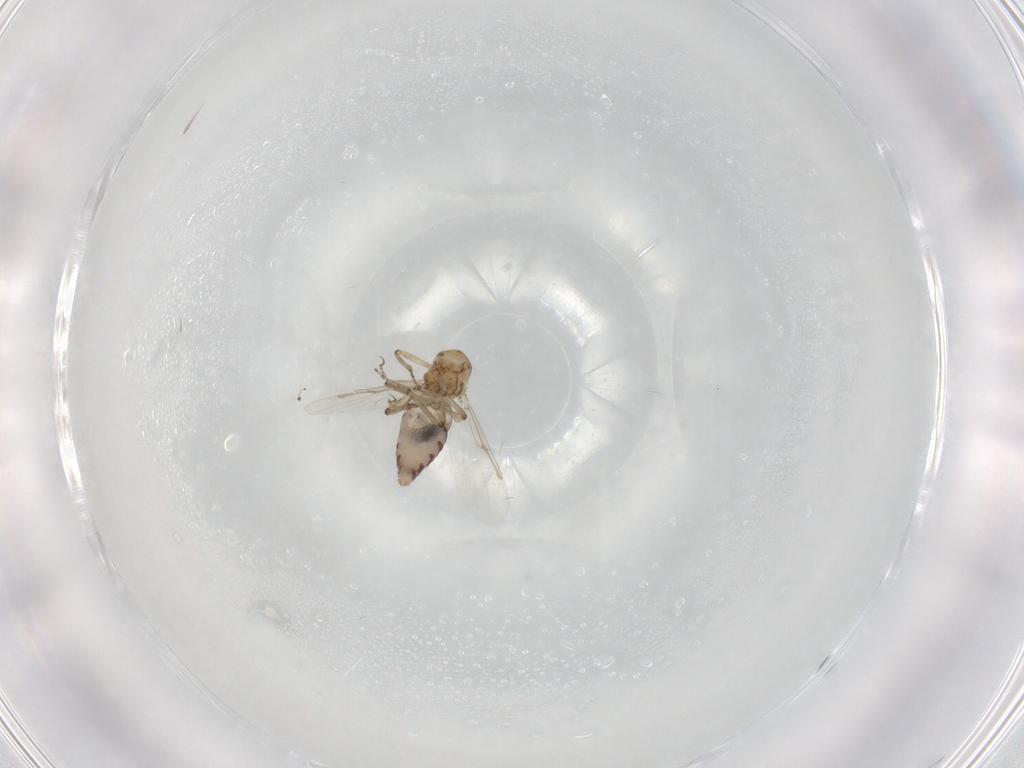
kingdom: Animalia
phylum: Arthropoda
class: Insecta
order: Diptera
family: Ceratopogonidae
